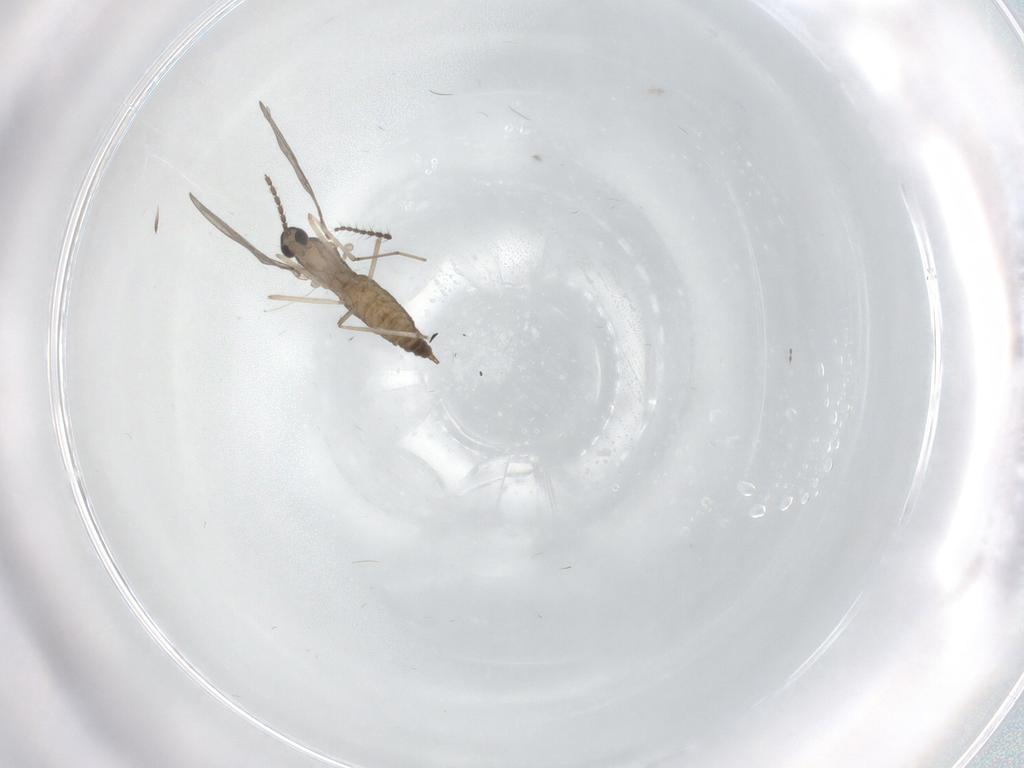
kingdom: Animalia
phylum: Arthropoda
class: Insecta
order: Diptera
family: Cecidomyiidae
